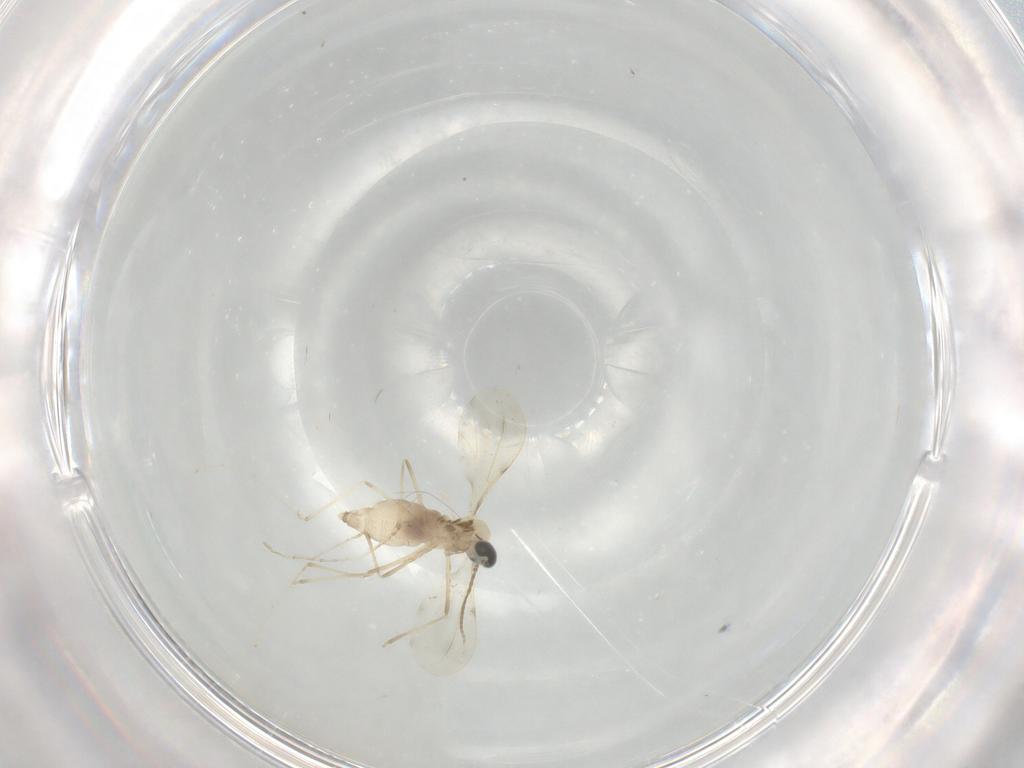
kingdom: Animalia
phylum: Arthropoda
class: Insecta
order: Diptera
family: Cecidomyiidae
